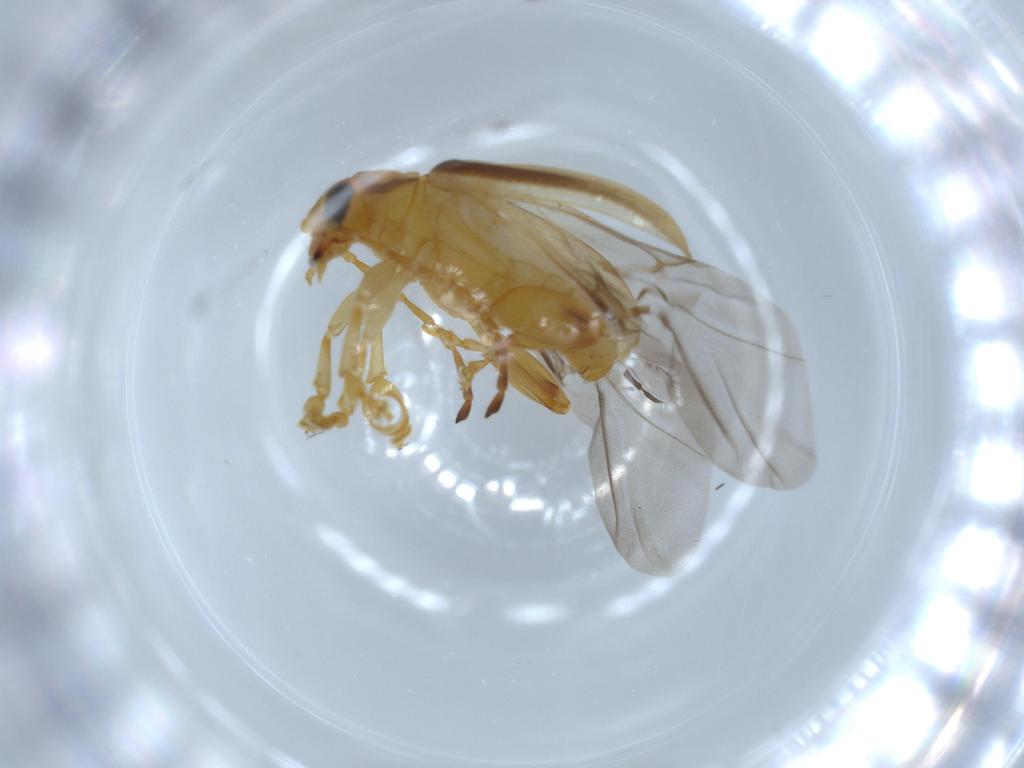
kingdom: Animalia
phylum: Arthropoda
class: Insecta
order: Coleoptera
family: Chrysomelidae
